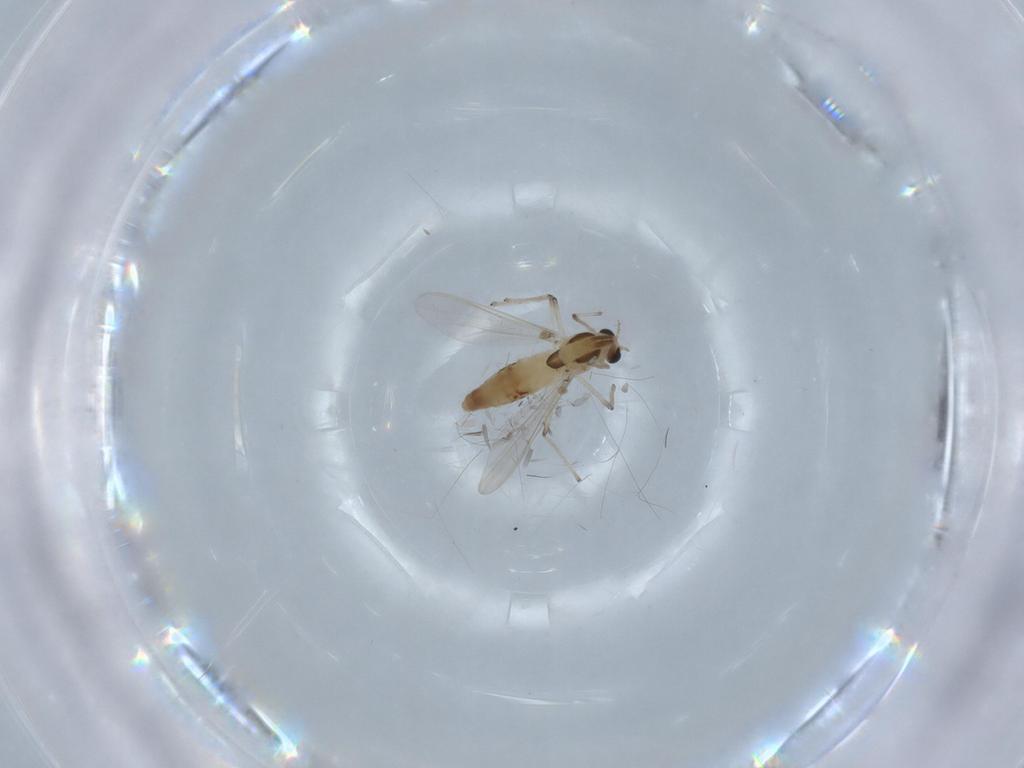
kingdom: Animalia
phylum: Arthropoda
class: Insecta
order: Diptera
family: Chironomidae
